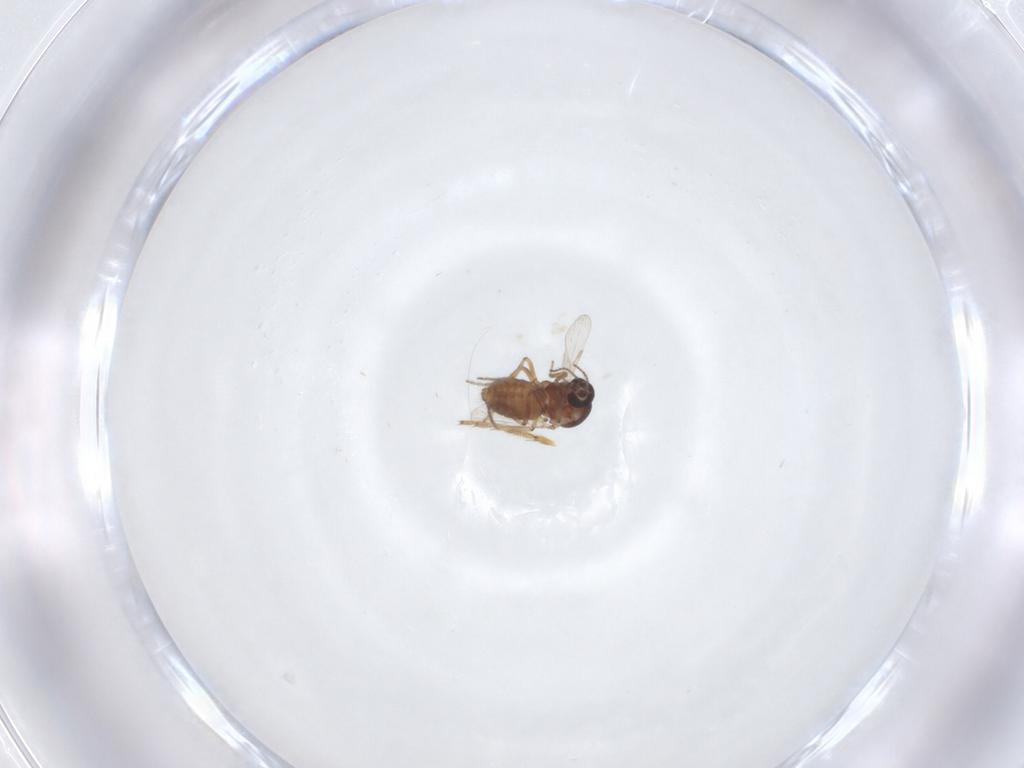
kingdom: Animalia
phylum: Arthropoda
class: Insecta
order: Diptera
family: Ceratopogonidae
